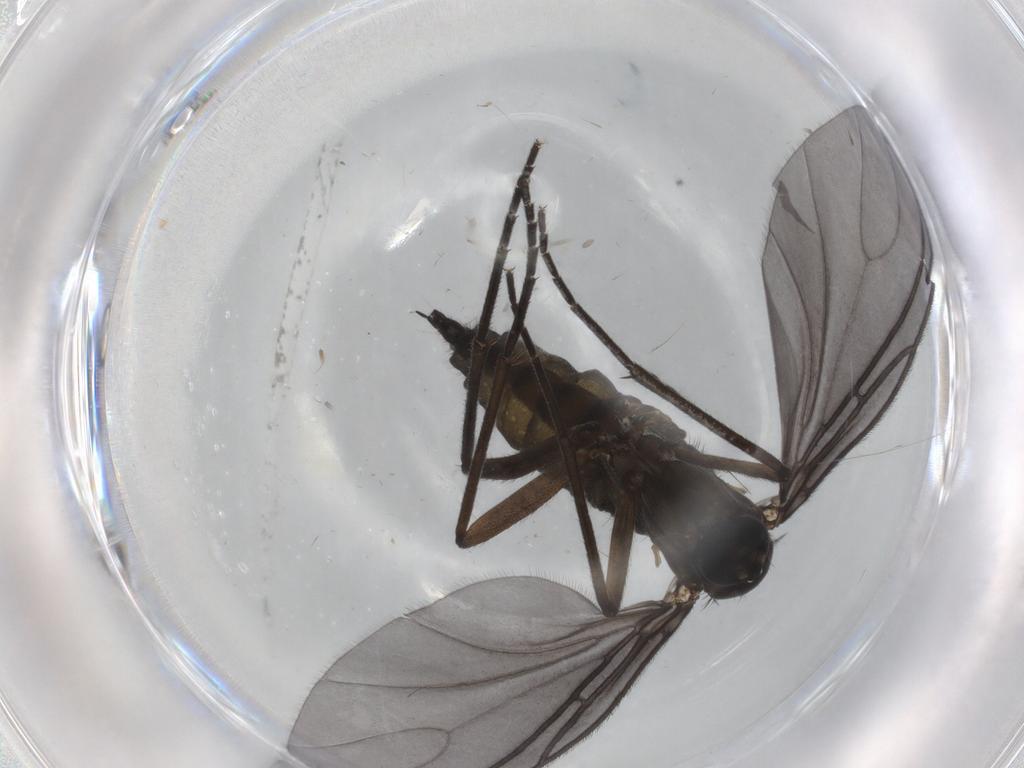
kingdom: Animalia
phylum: Arthropoda
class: Insecta
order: Diptera
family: Sciaridae
